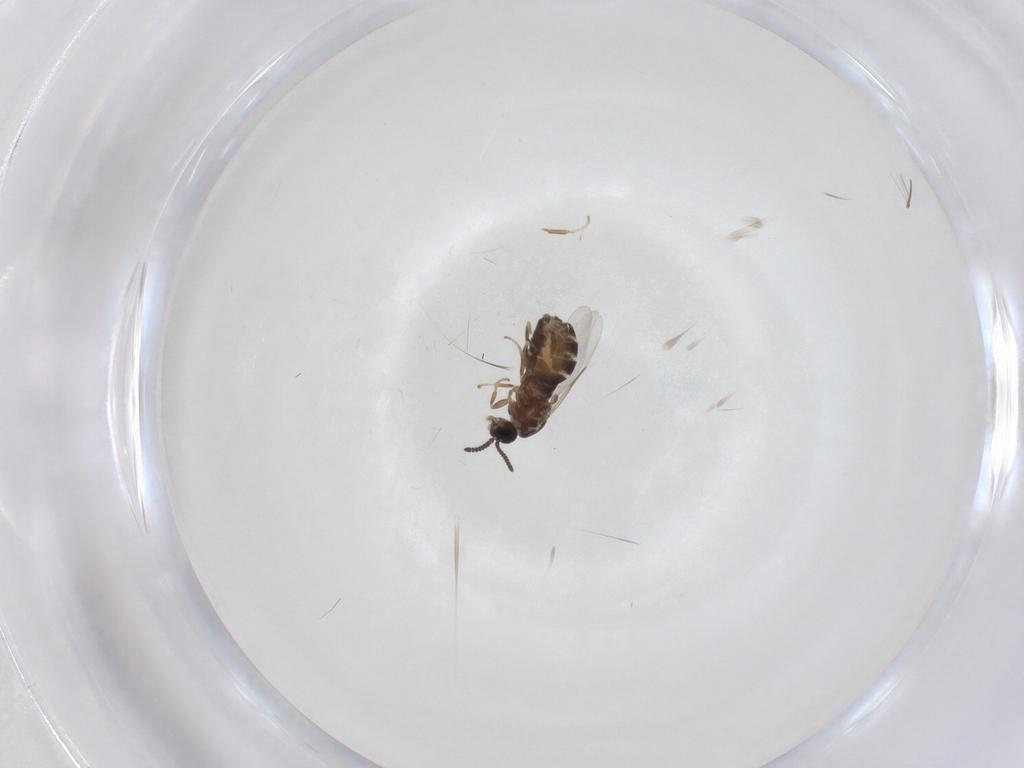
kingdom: Animalia
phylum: Arthropoda
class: Insecta
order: Diptera
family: Scatopsidae
